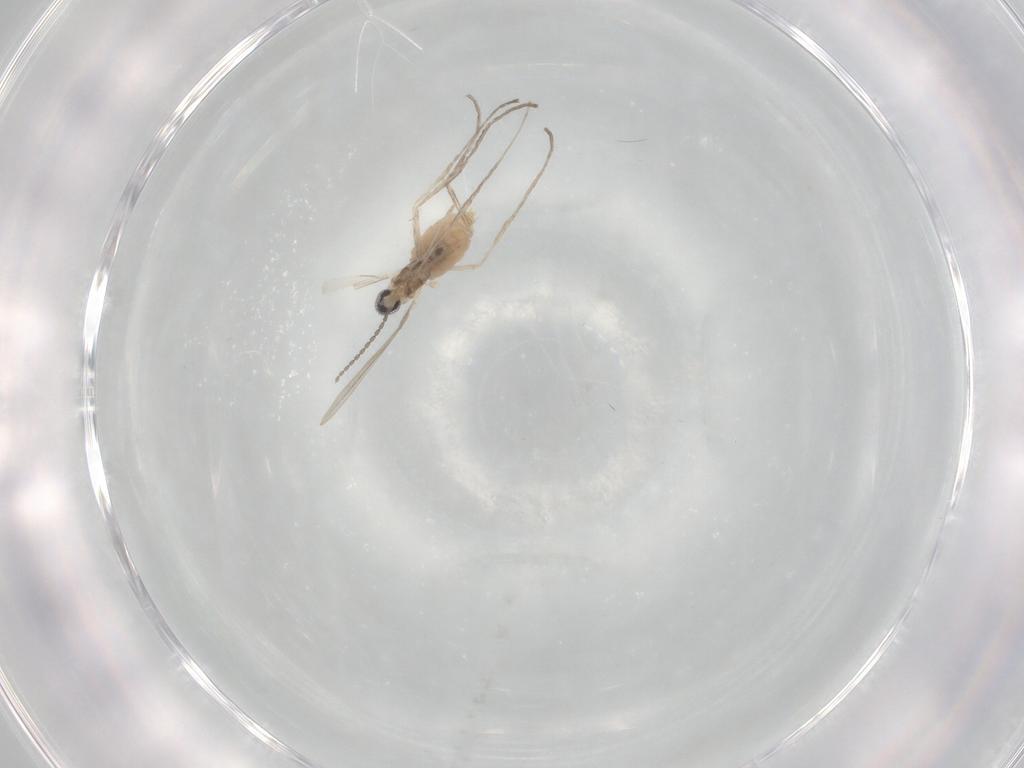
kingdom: Animalia
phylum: Arthropoda
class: Insecta
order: Diptera
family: Cecidomyiidae
